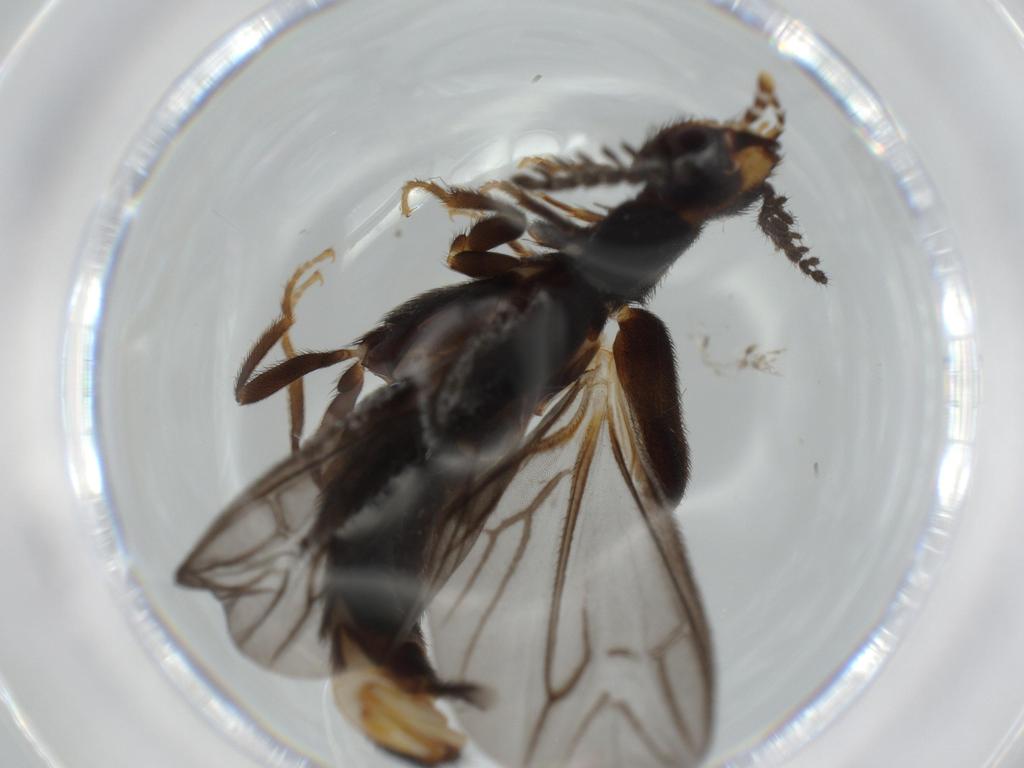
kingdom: Animalia
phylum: Arthropoda
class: Insecta
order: Coleoptera
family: Phengodidae
